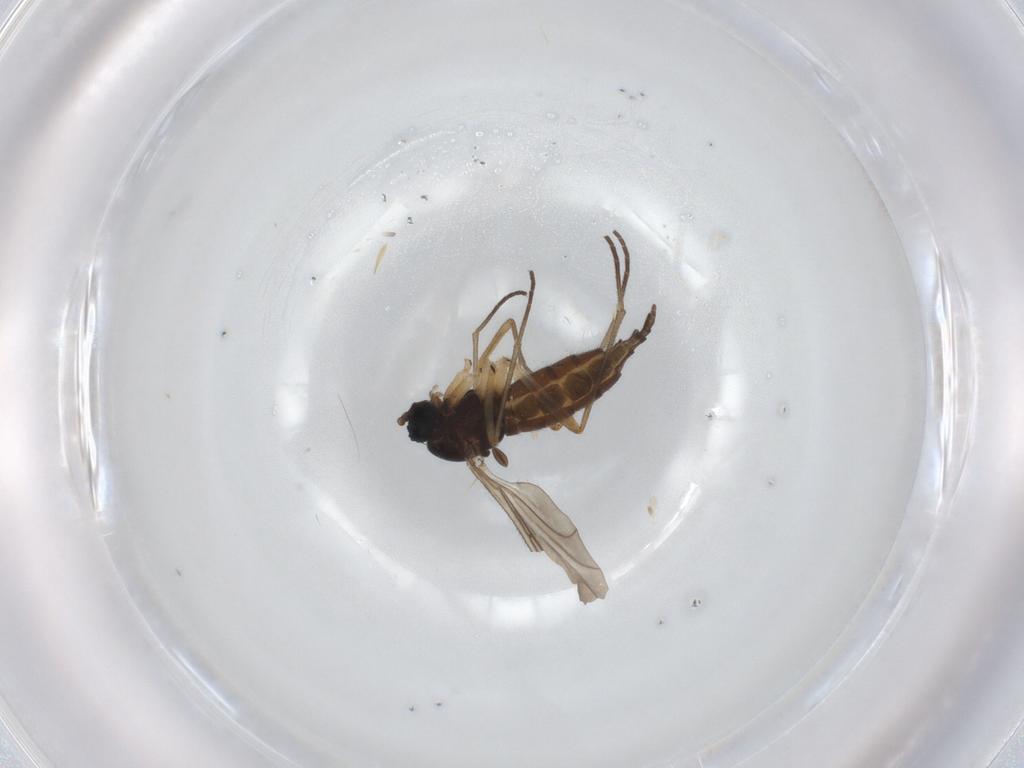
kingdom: Animalia
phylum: Arthropoda
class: Insecta
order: Diptera
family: Sciaridae
